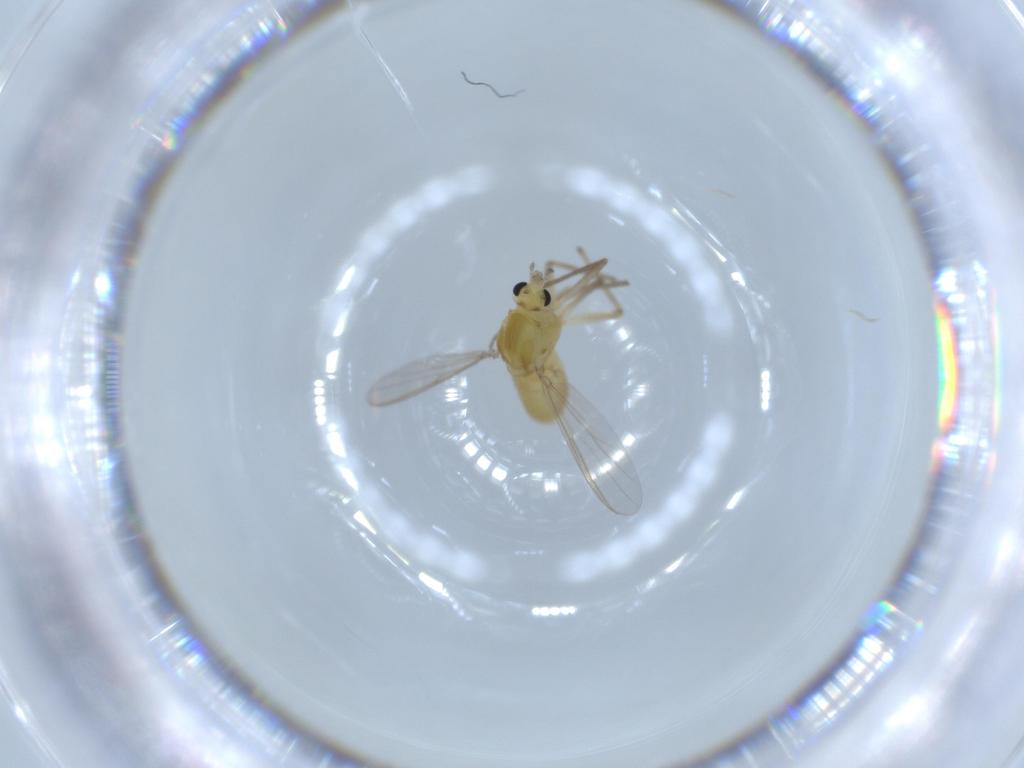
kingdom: Animalia
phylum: Arthropoda
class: Insecta
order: Diptera
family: Chironomidae
